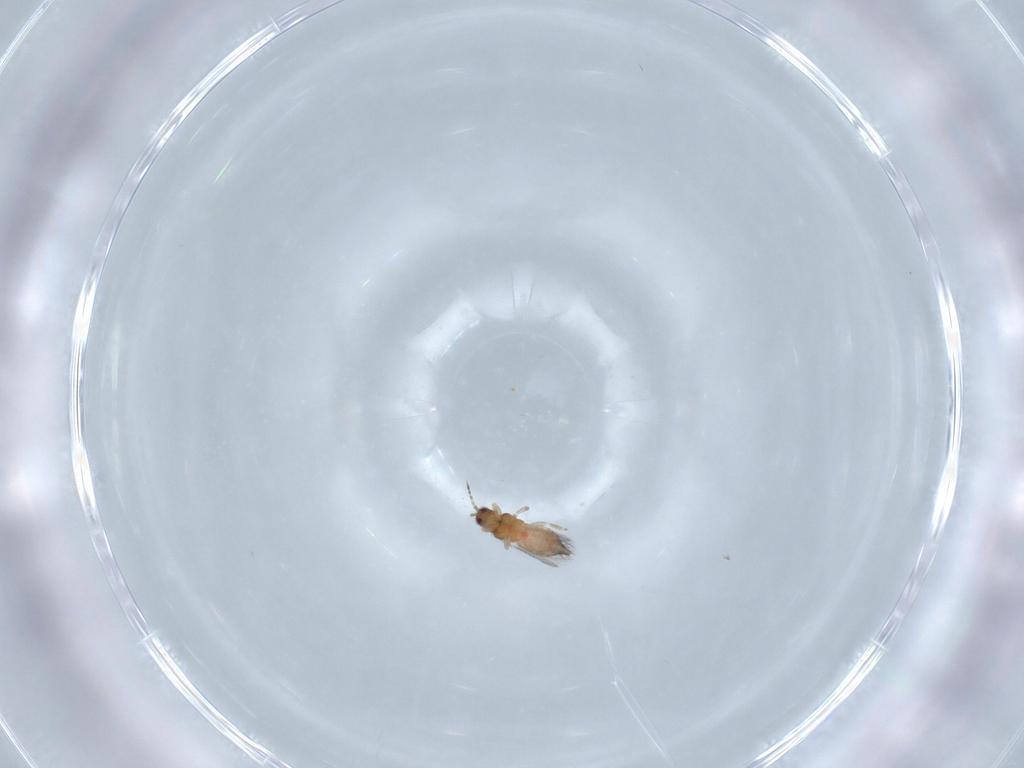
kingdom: Animalia
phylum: Arthropoda
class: Insecta
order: Thysanoptera
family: Thripidae
